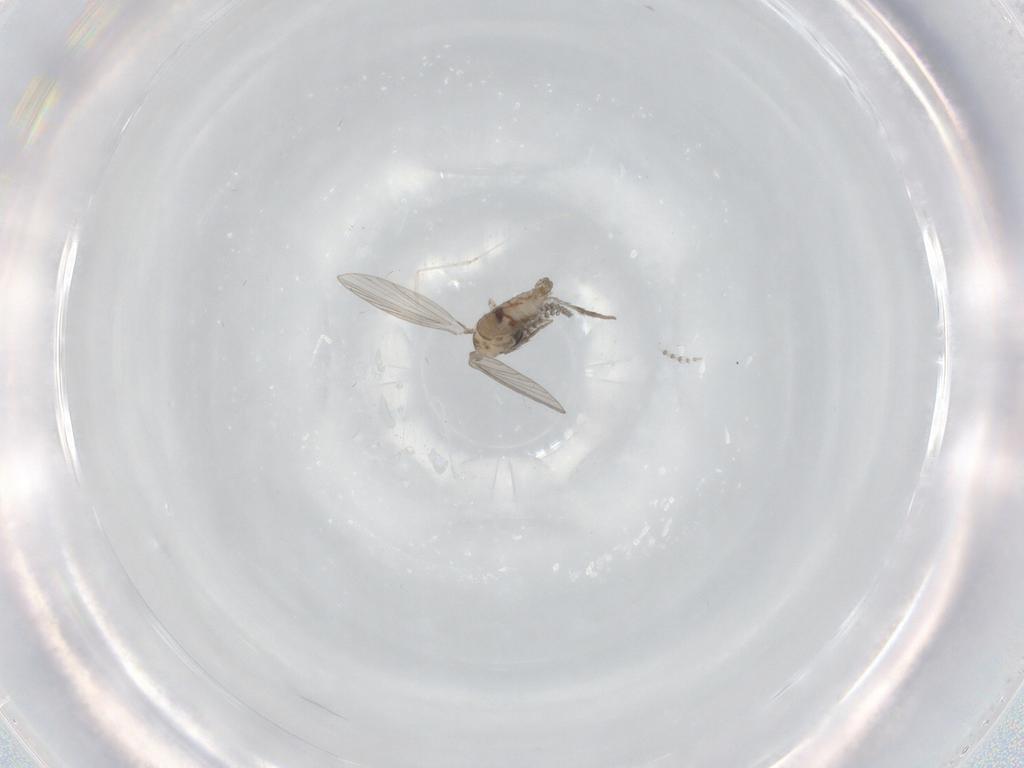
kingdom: Animalia
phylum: Arthropoda
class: Insecta
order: Diptera
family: Psychodidae
